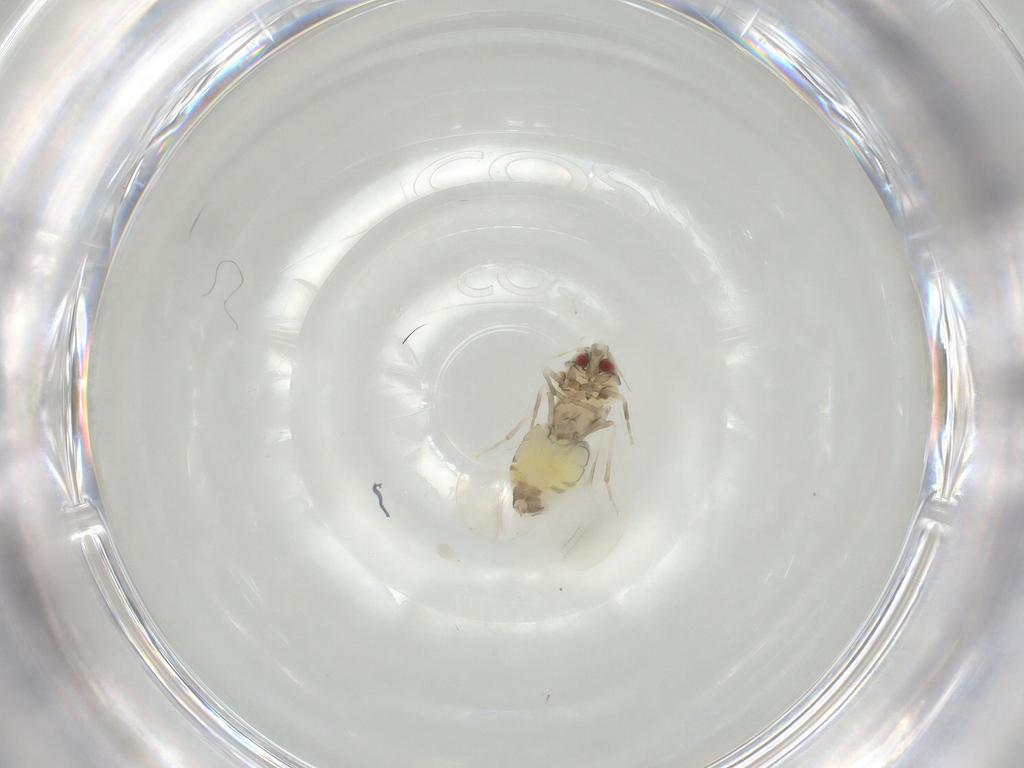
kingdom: Animalia
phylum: Arthropoda
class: Insecta
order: Hemiptera
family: Aleyrodidae
